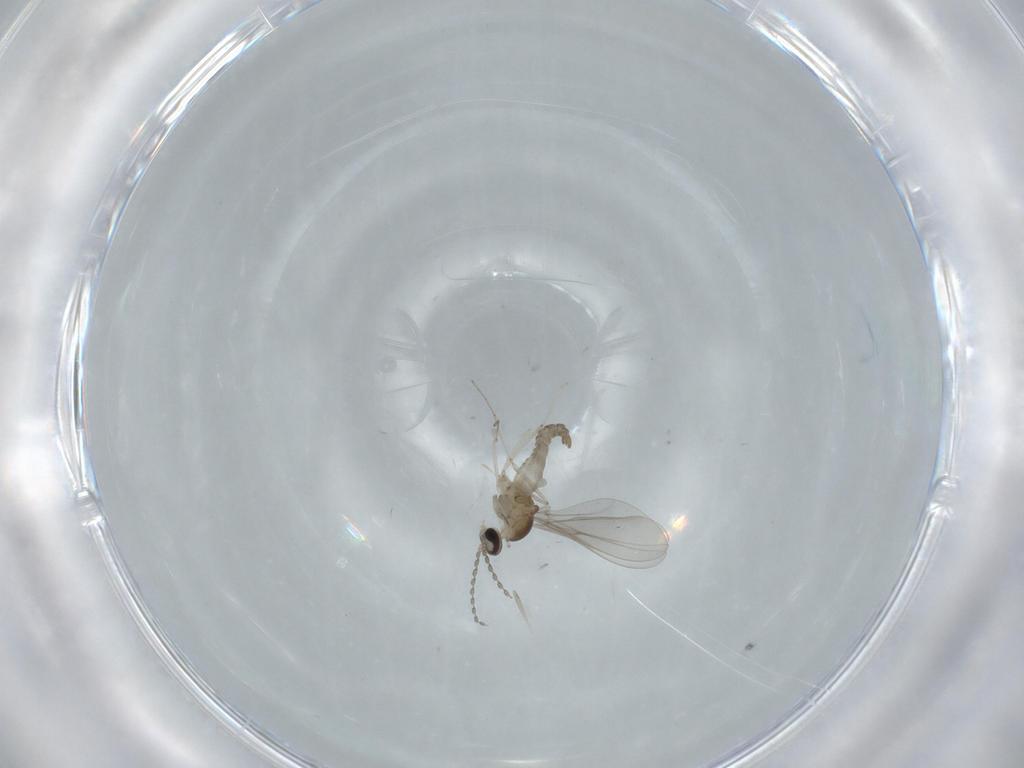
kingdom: Animalia
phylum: Arthropoda
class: Insecta
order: Diptera
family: Cecidomyiidae
